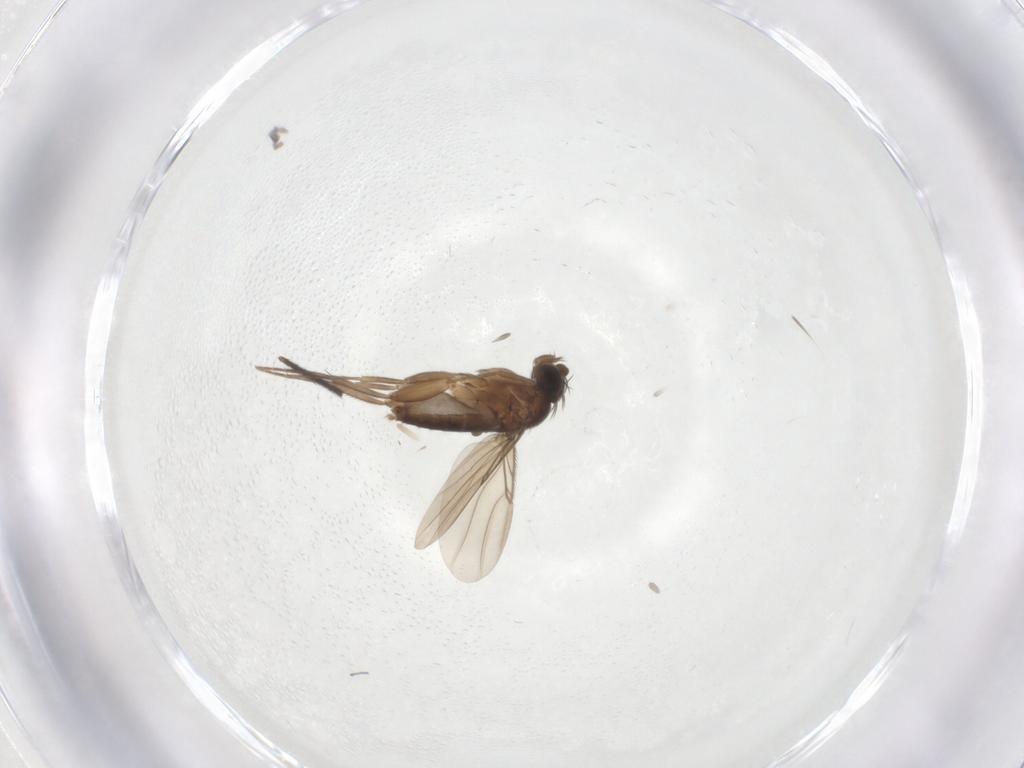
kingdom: Animalia
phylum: Arthropoda
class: Insecta
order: Diptera
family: Phoridae
